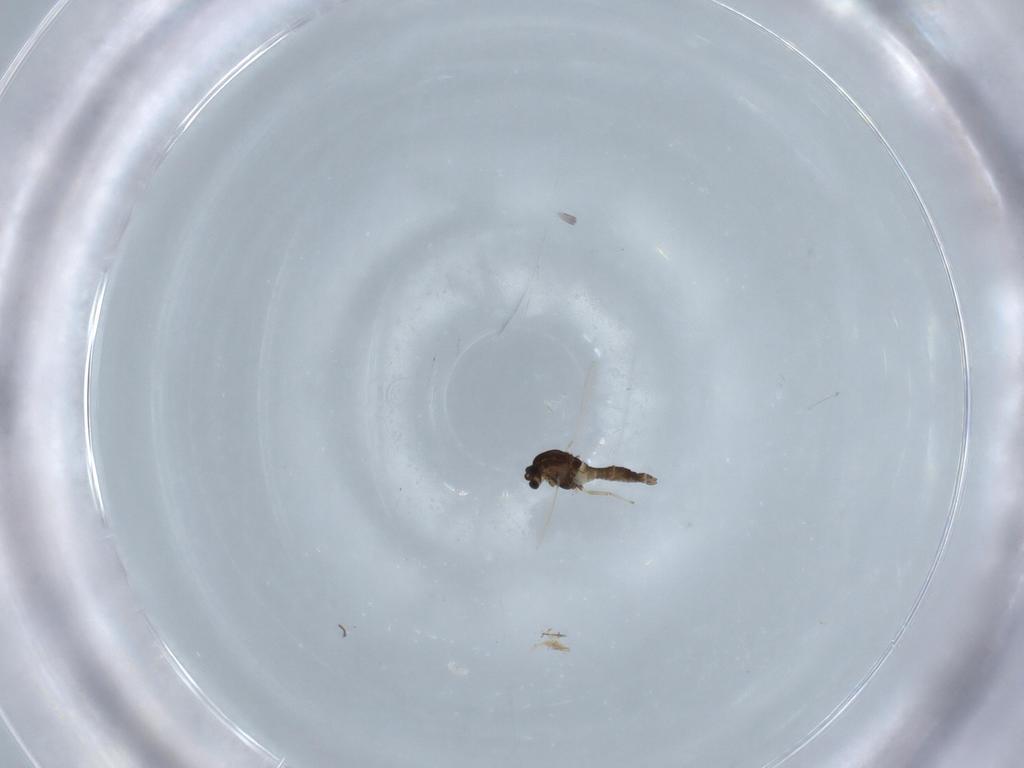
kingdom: Animalia
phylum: Arthropoda
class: Insecta
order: Diptera
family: Chironomidae
